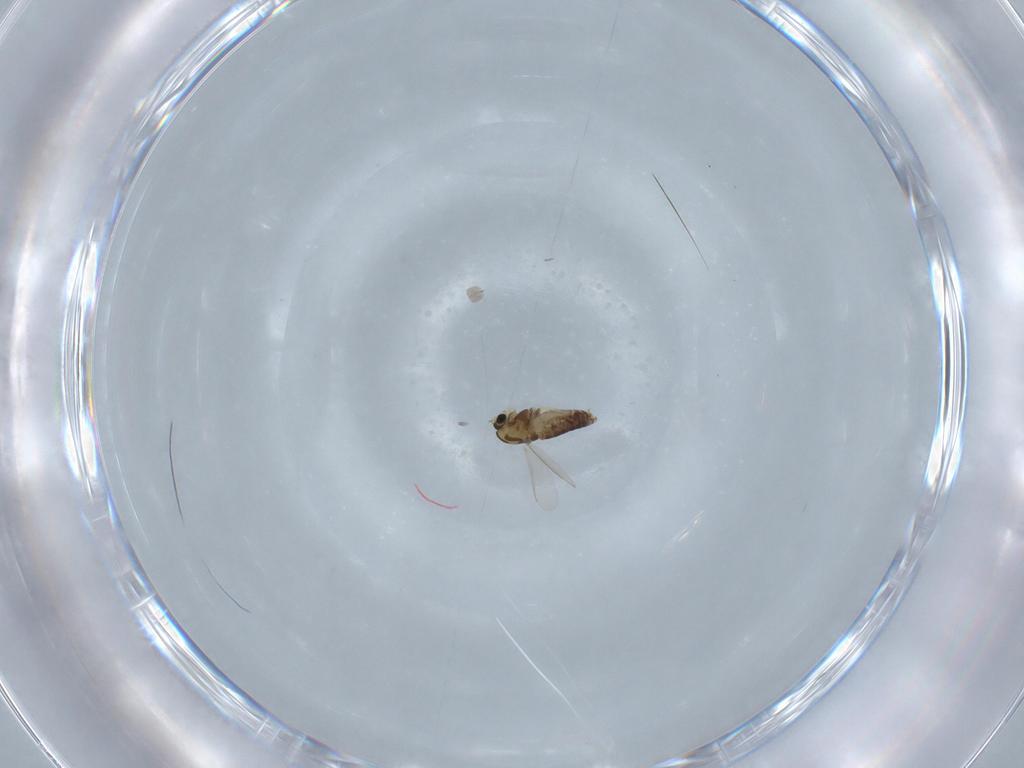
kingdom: Animalia
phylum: Arthropoda
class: Insecta
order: Diptera
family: Chironomidae
